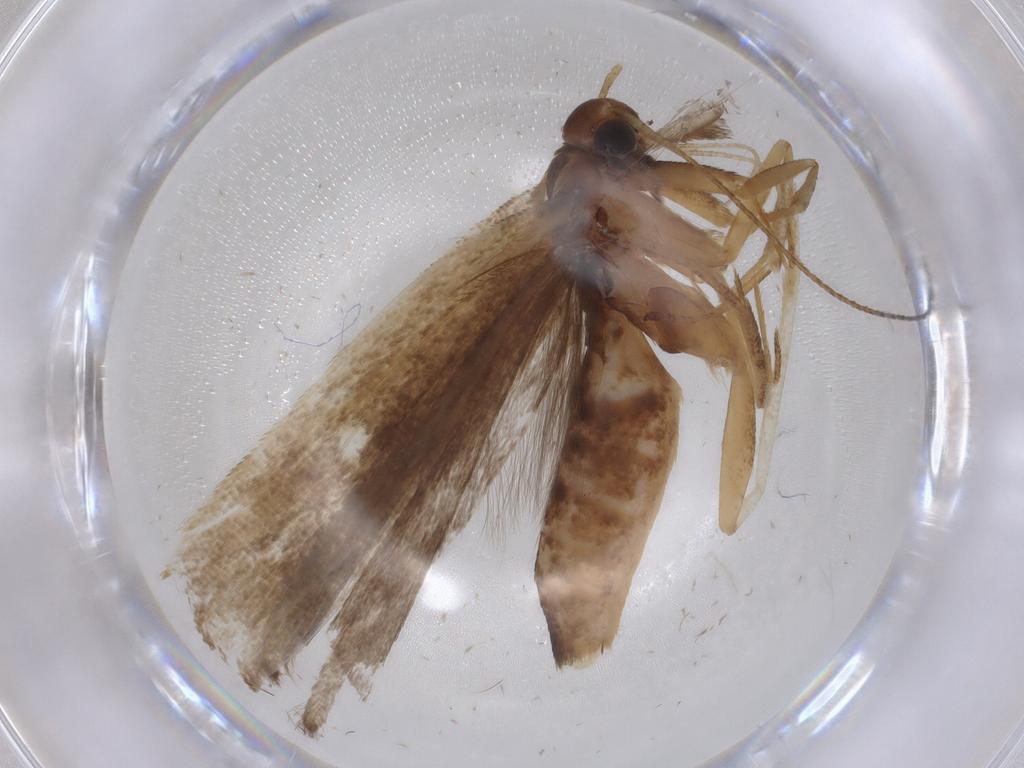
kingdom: Animalia
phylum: Arthropoda
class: Insecta
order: Lepidoptera
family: Gelechiidae
